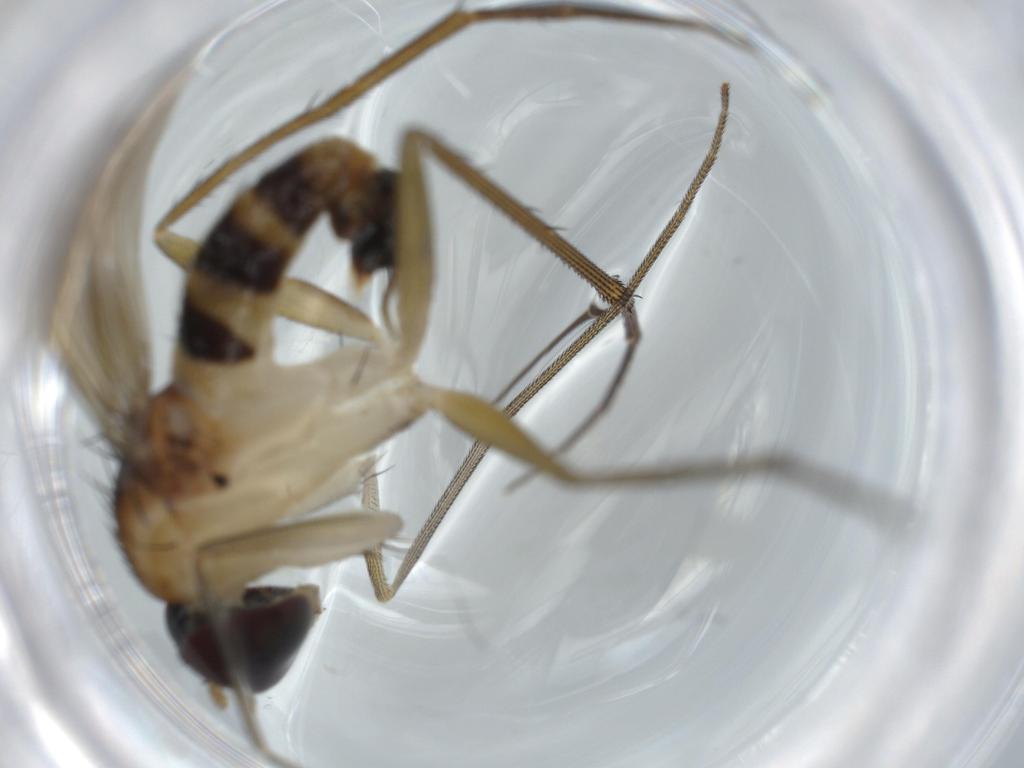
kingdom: Animalia
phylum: Arthropoda
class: Insecta
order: Diptera
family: Dolichopodidae
